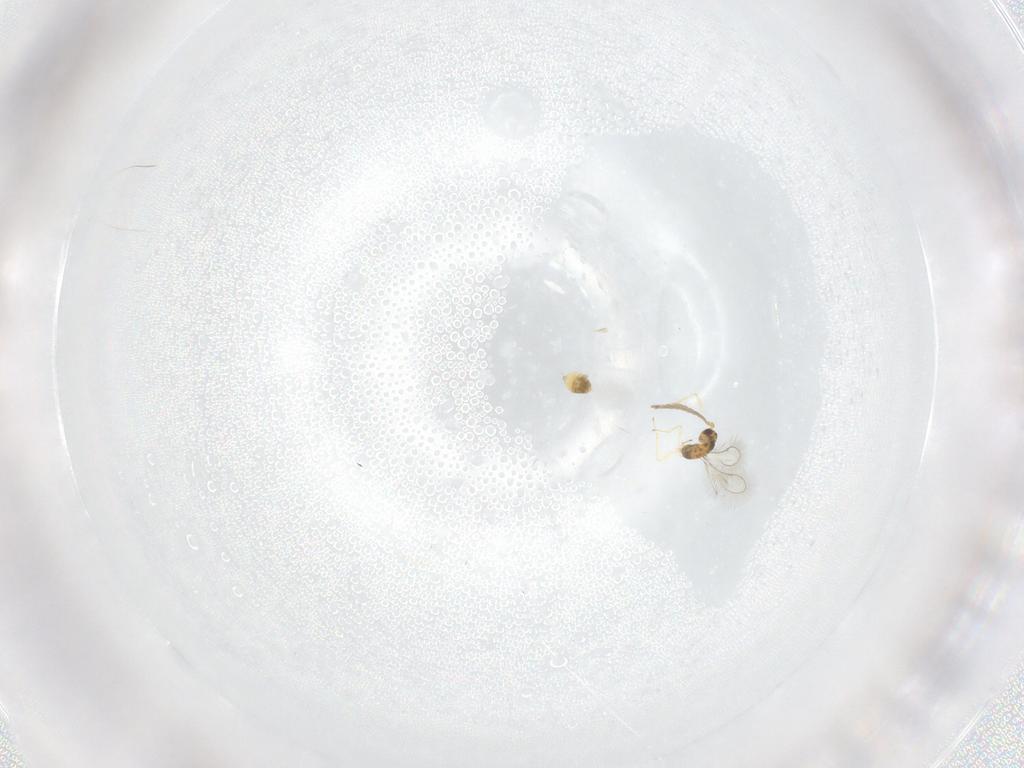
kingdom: Animalia
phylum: Arthropoda
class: Insecta
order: Hymenoptera
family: Mymaridae
